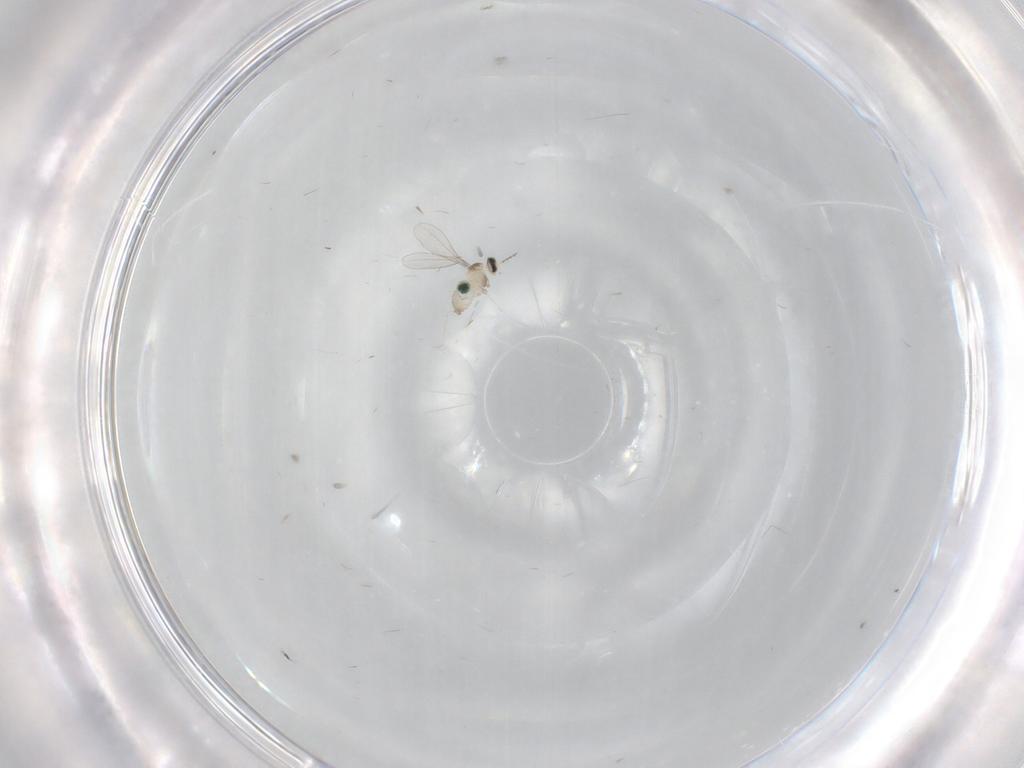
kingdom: Animalia
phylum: Arthropoda
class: Insecta
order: Diptera
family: Cecidomyiidae
